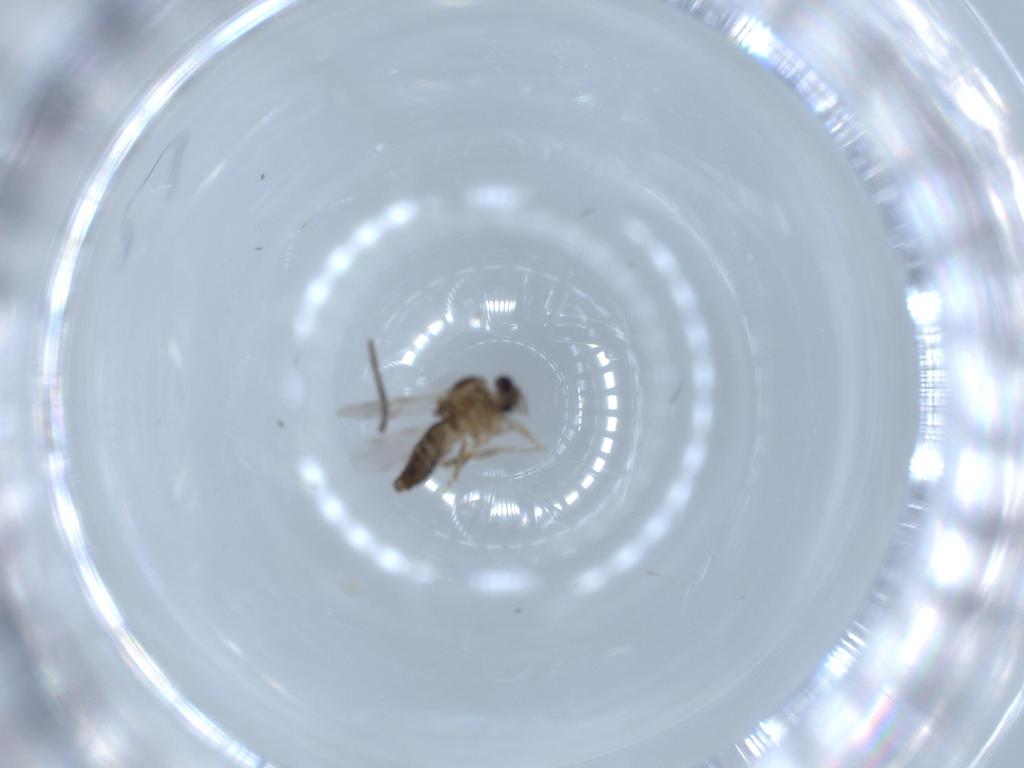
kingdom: Animalia
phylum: Arthropoda
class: Insecta
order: Diptera
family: Ceratopogonidae
